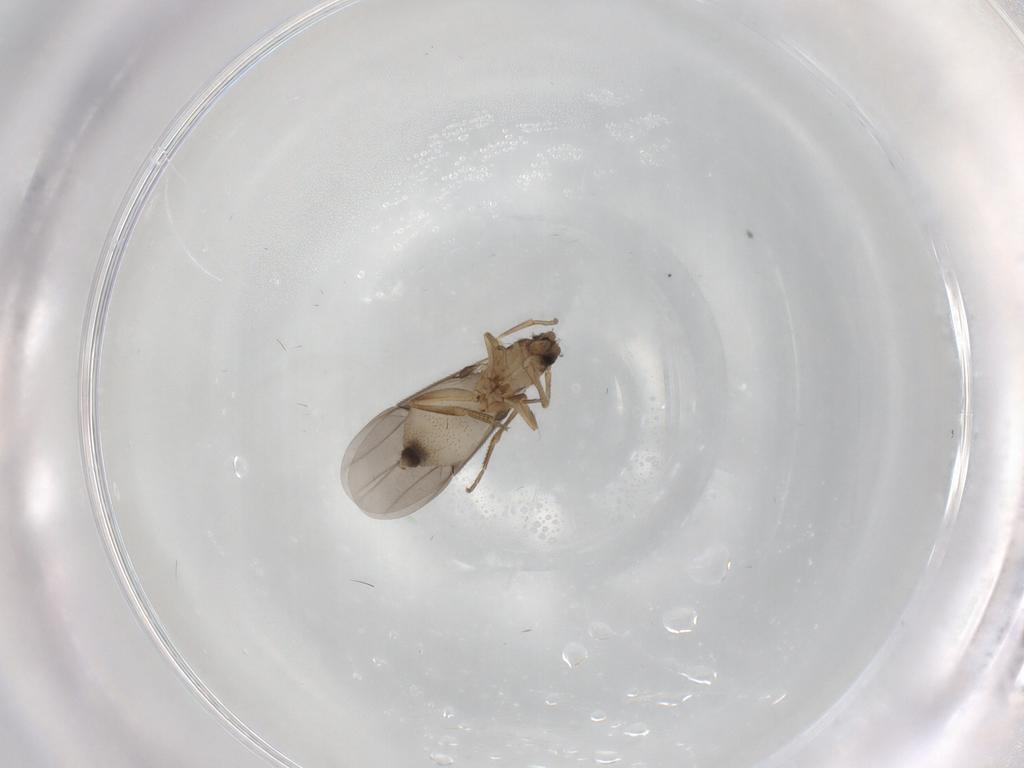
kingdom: Animalia
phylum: Arthropoda
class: Insecta
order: Diptera
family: Phoridae
